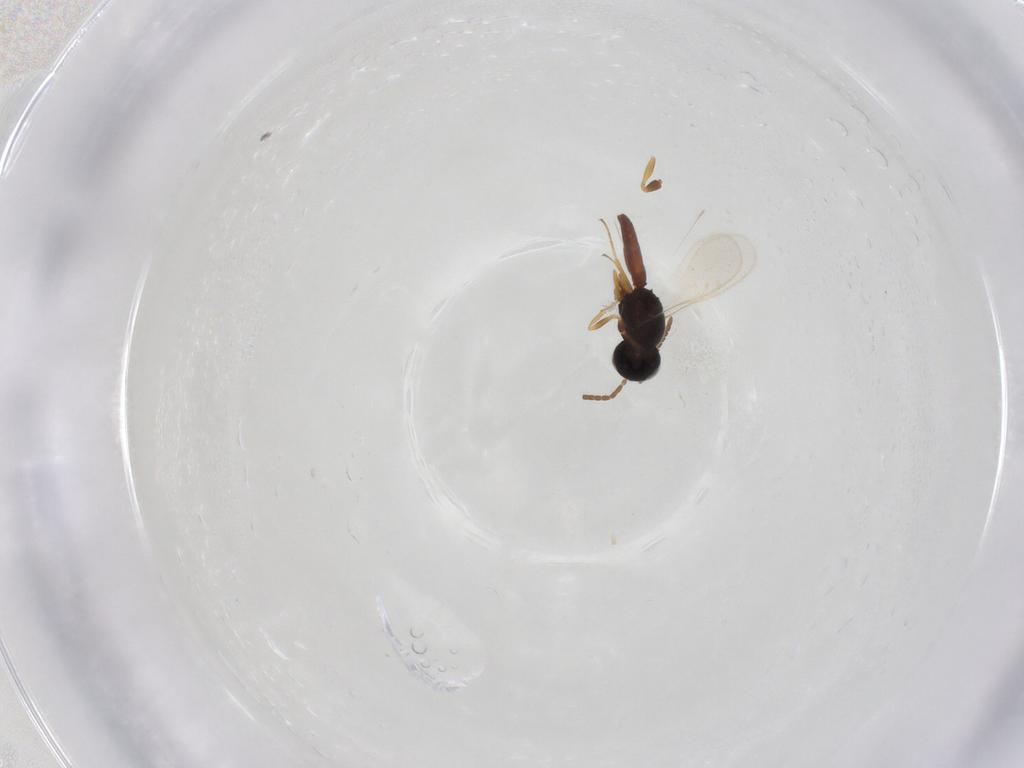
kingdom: Animalia
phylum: Arthropoda
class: Insecta
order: Hymenoptera
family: Scelionidae
